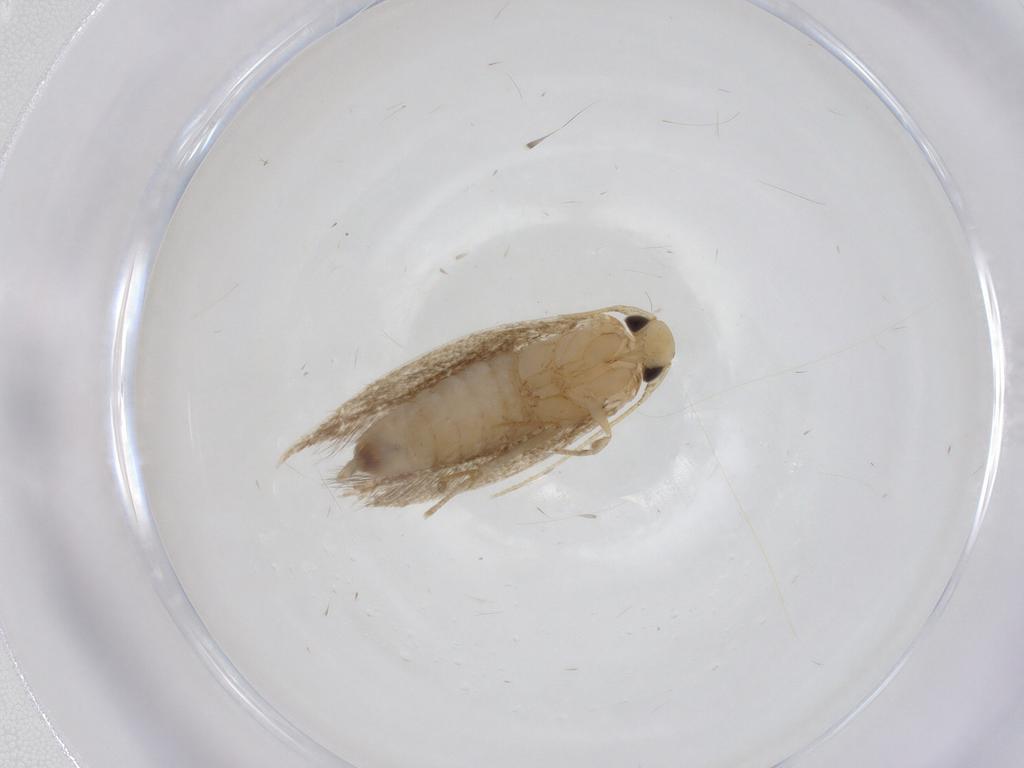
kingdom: Animalia
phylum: Arthropoda
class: Insecta
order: Lepidoptera
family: Tineidae
